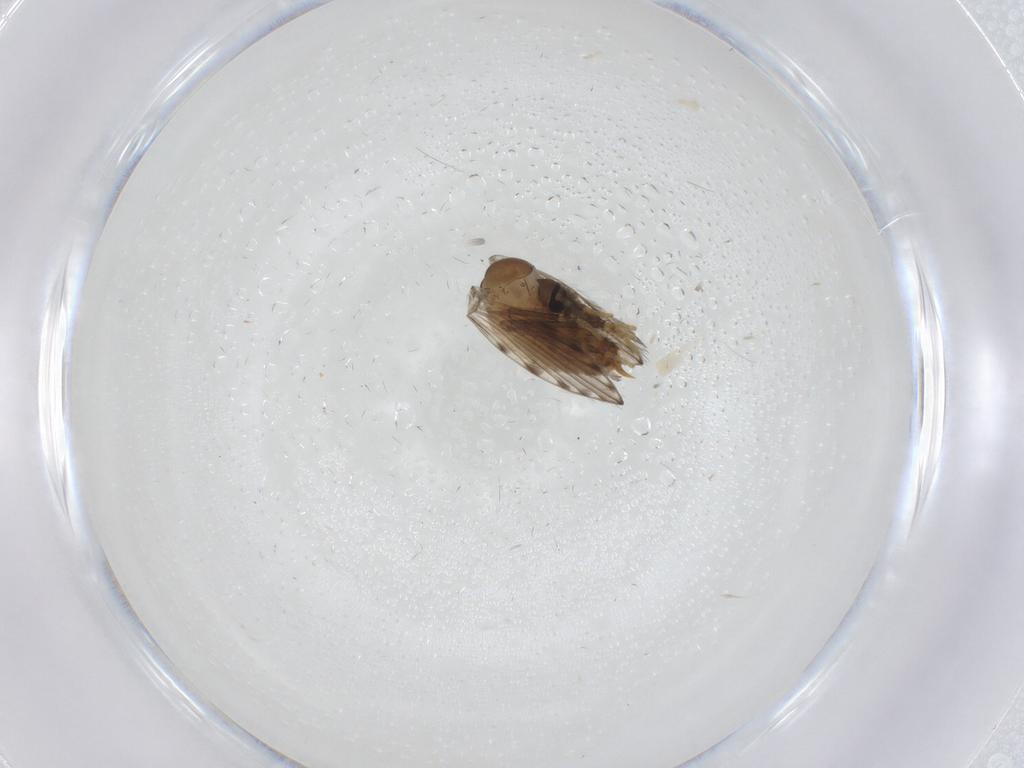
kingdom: Animalia
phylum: Arthropoda
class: Insecta
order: Diptera
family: Psychodidae
